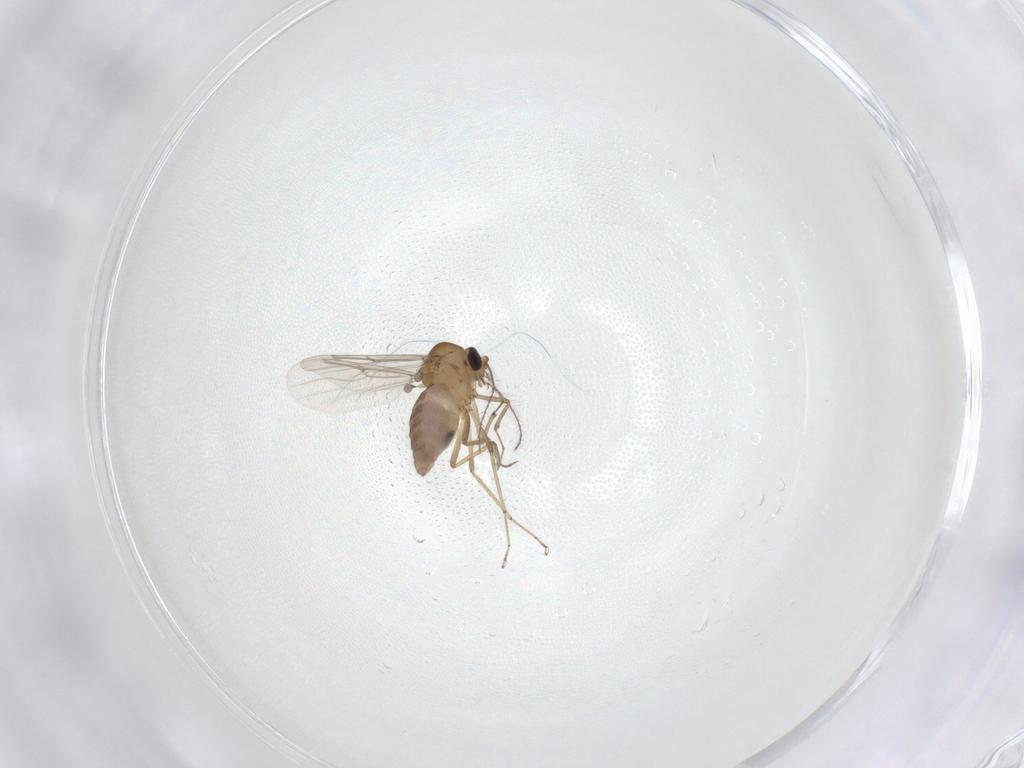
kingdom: Animalia
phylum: Arthropoda
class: Insecta
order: Diptera
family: Ceratopogonidae
